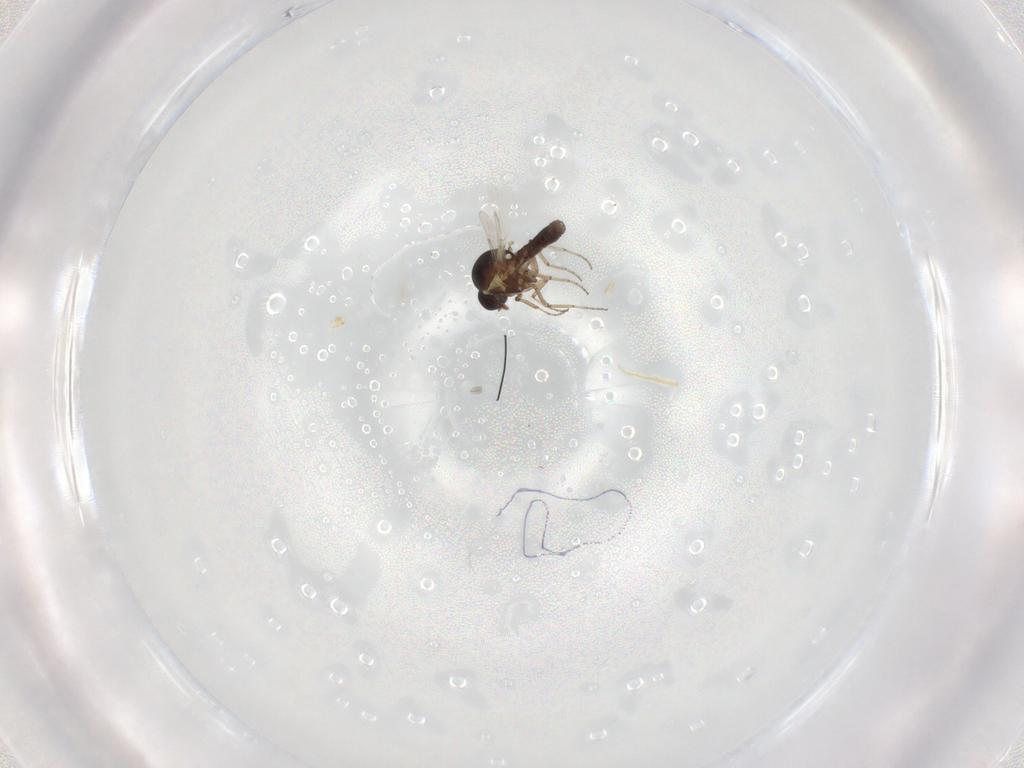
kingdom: Animalia
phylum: Arthropoda
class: Insecta
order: Diptera
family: Ceratopogonidae
